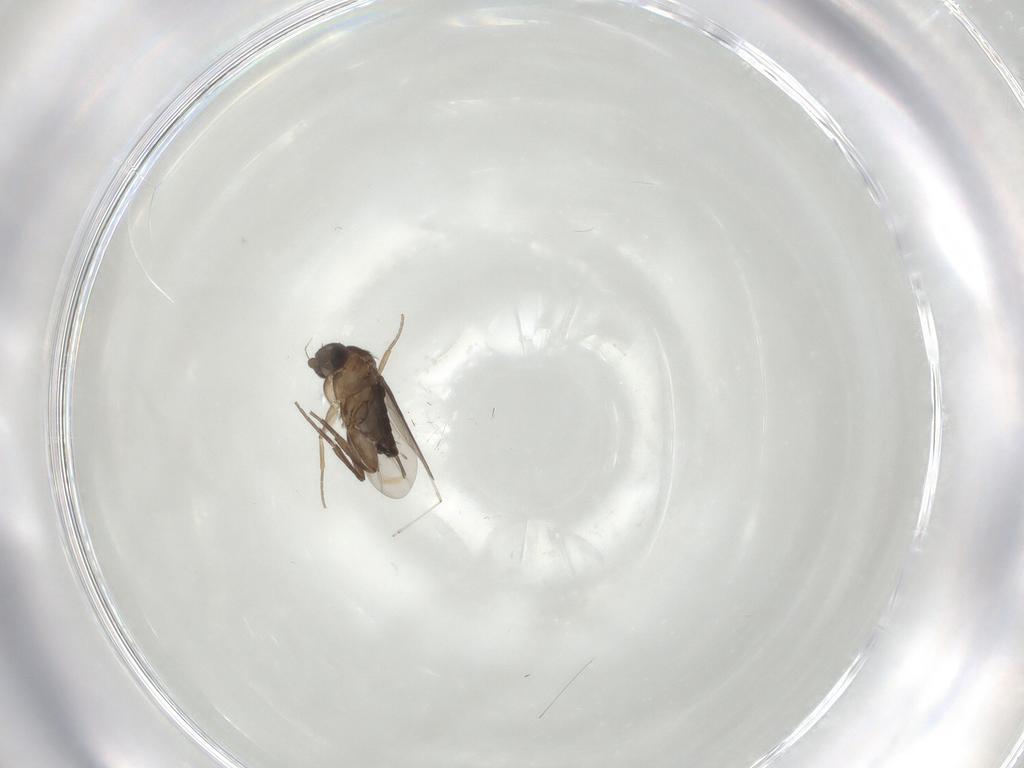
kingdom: Animalia
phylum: Arthropoda
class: Insecta
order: Diptera
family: Phoridae
